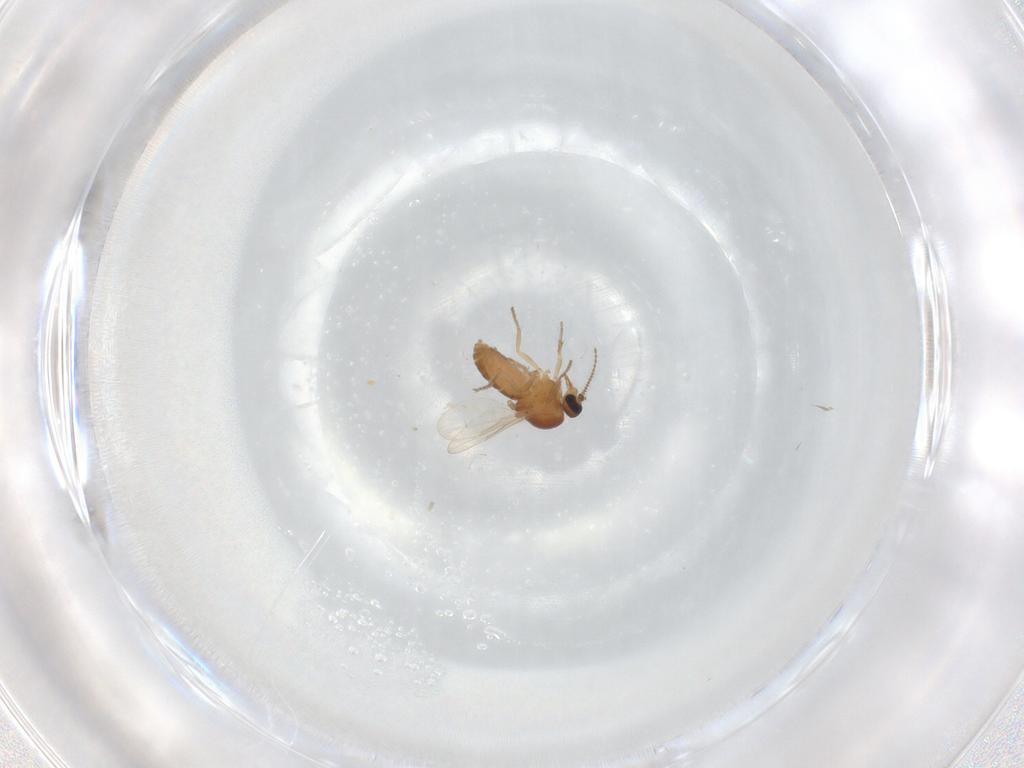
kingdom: Animalia
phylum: Arthropoda
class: Insecta
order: Diptera
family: Ceratopogonidae
